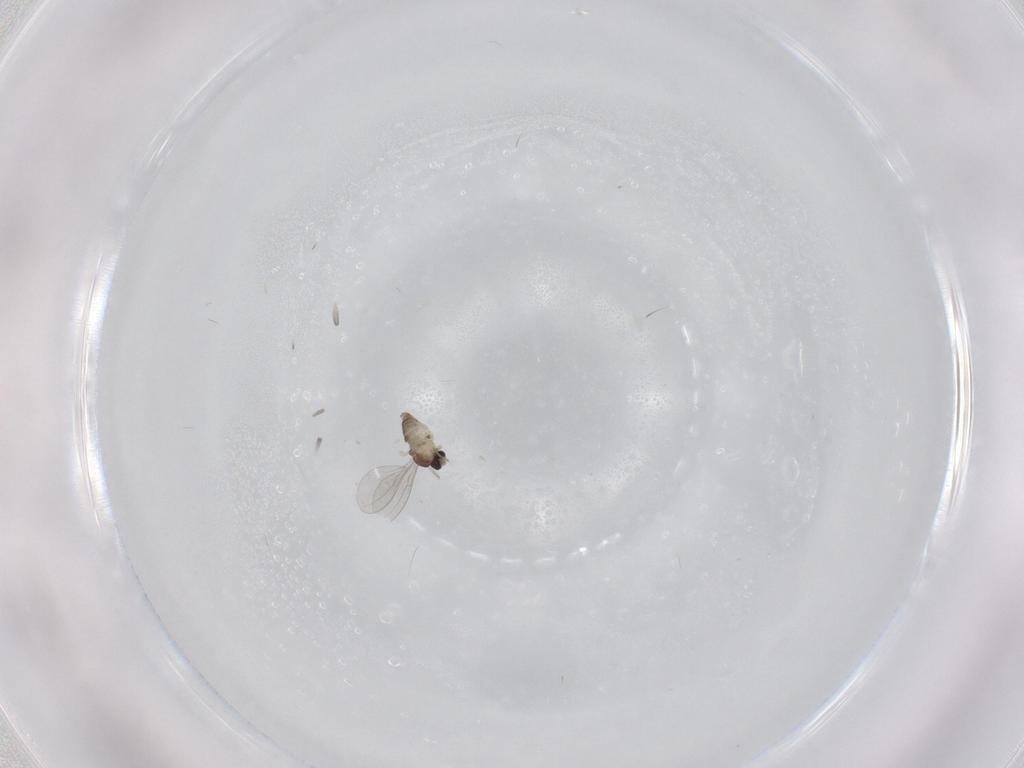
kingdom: Animalia
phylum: Arthropoda
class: Insecta
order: Diptera
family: Cecidomyiidae
